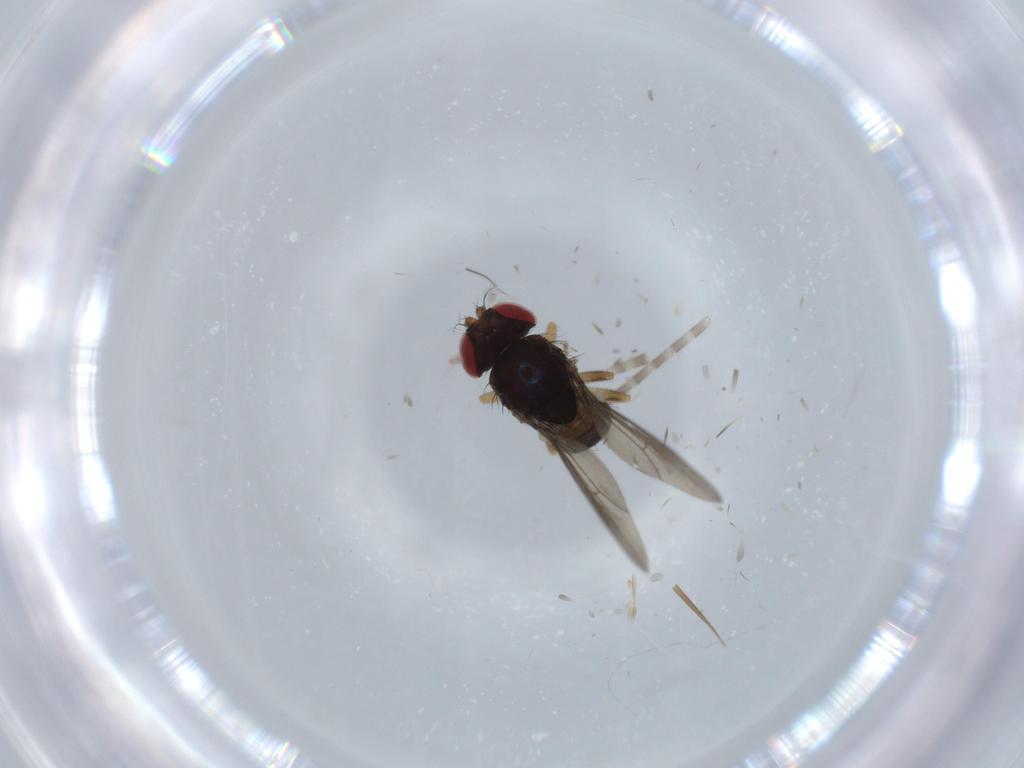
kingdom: Animalia
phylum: Arthropoda
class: Insecta
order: Diptera
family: Drosophilidae
